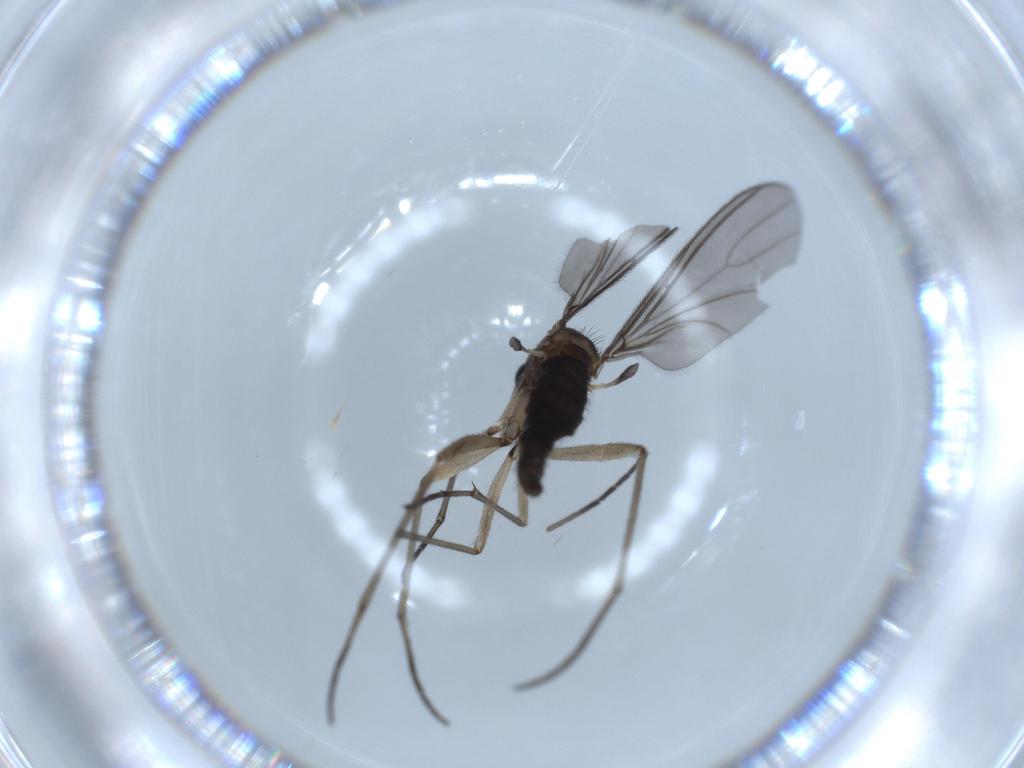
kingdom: Animalia
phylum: Arthropoda
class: Insecta
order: Diptera
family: Sciaridae
